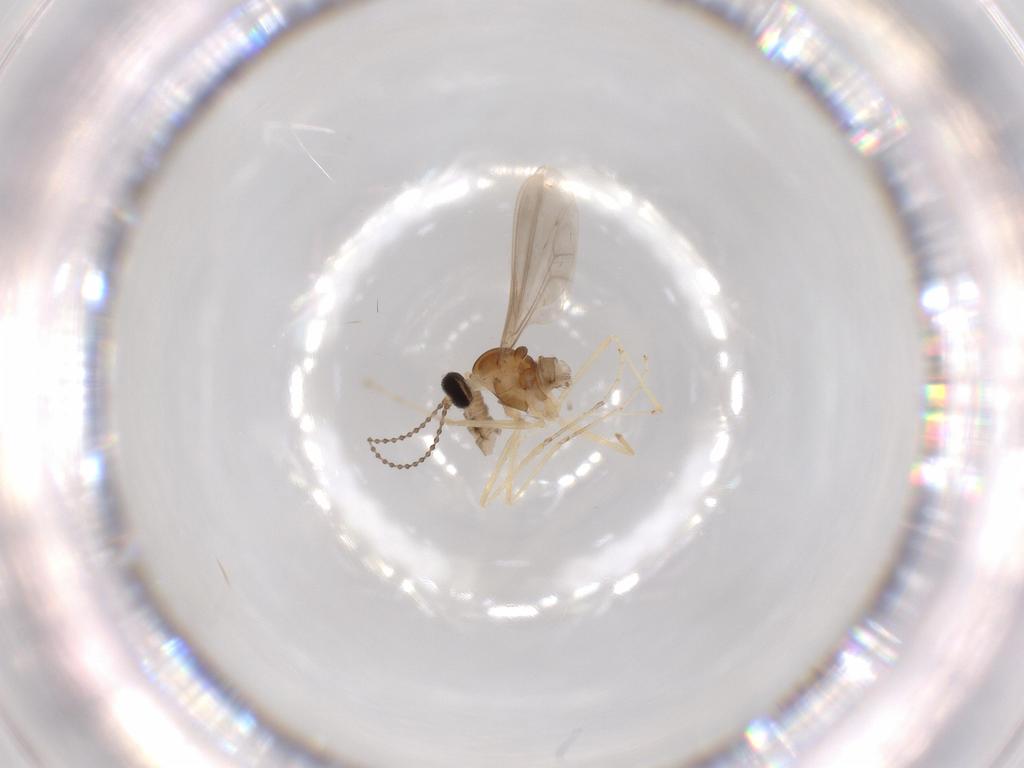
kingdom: Animalia
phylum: Arthropoda
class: Insecta
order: Diptera
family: Cecidomyiidae
